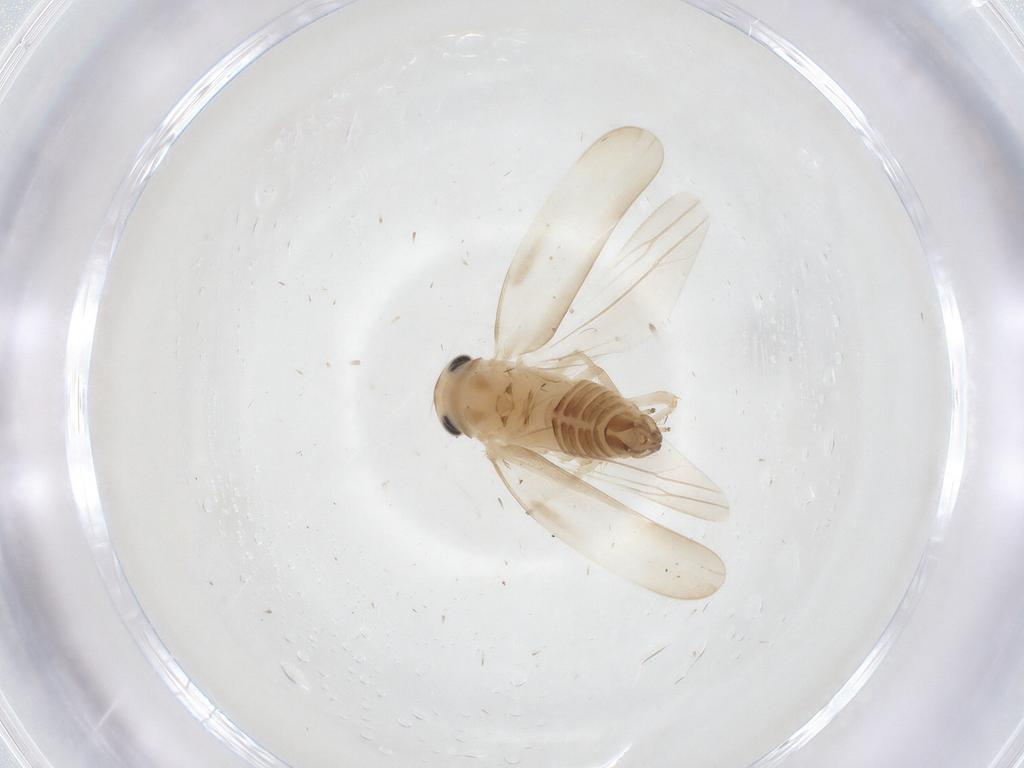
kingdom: Animalia
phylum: Arthropoda
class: Insecta
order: Hemiptera
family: Cicadellidae
